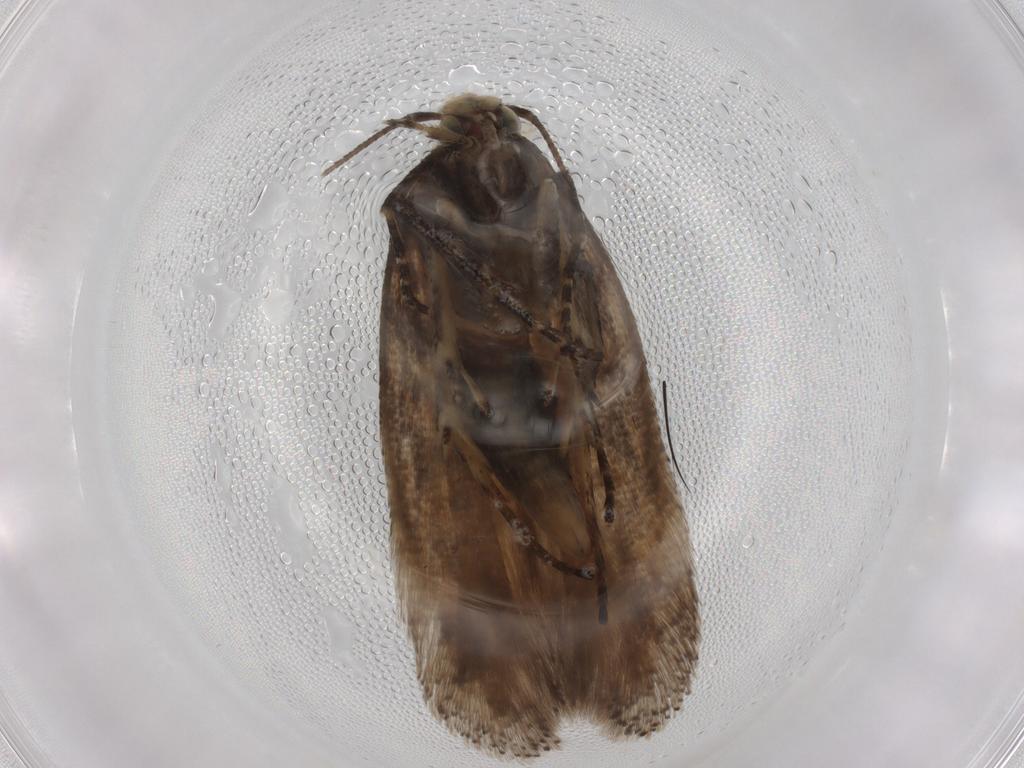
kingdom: Animalia
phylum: Arthropoda
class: Insecta
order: Lepidoptera
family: Gelechiidae
